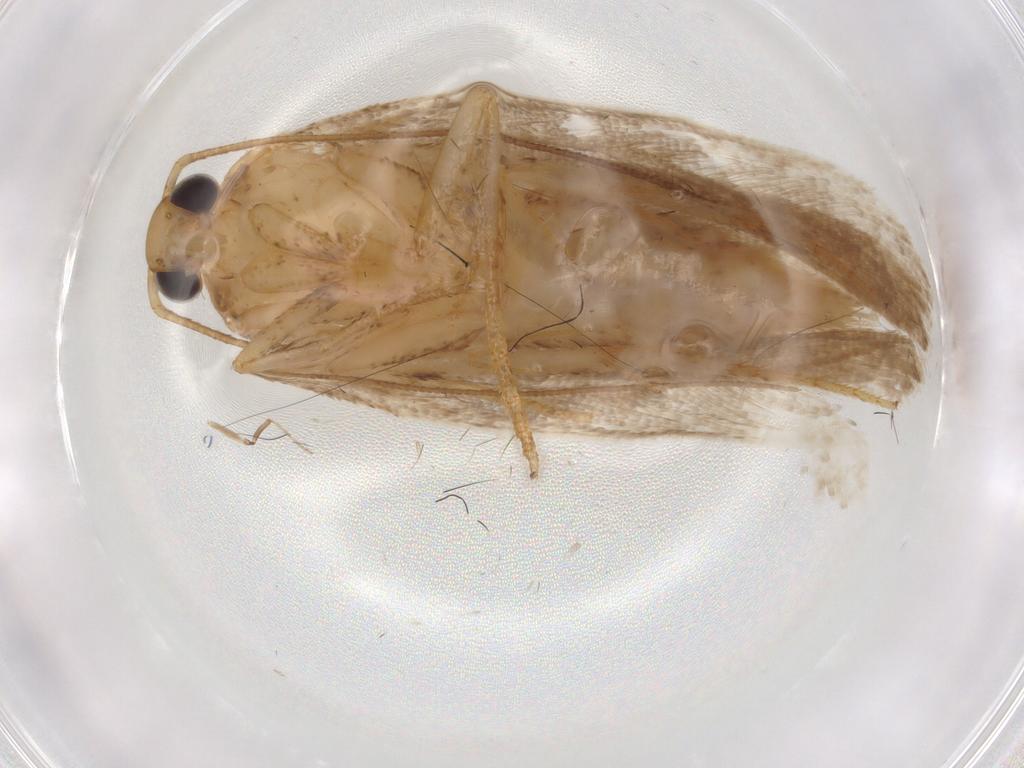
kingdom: Animalia
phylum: Arthropoda
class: Insecta
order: Lepidoptera
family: Gelechiidae
